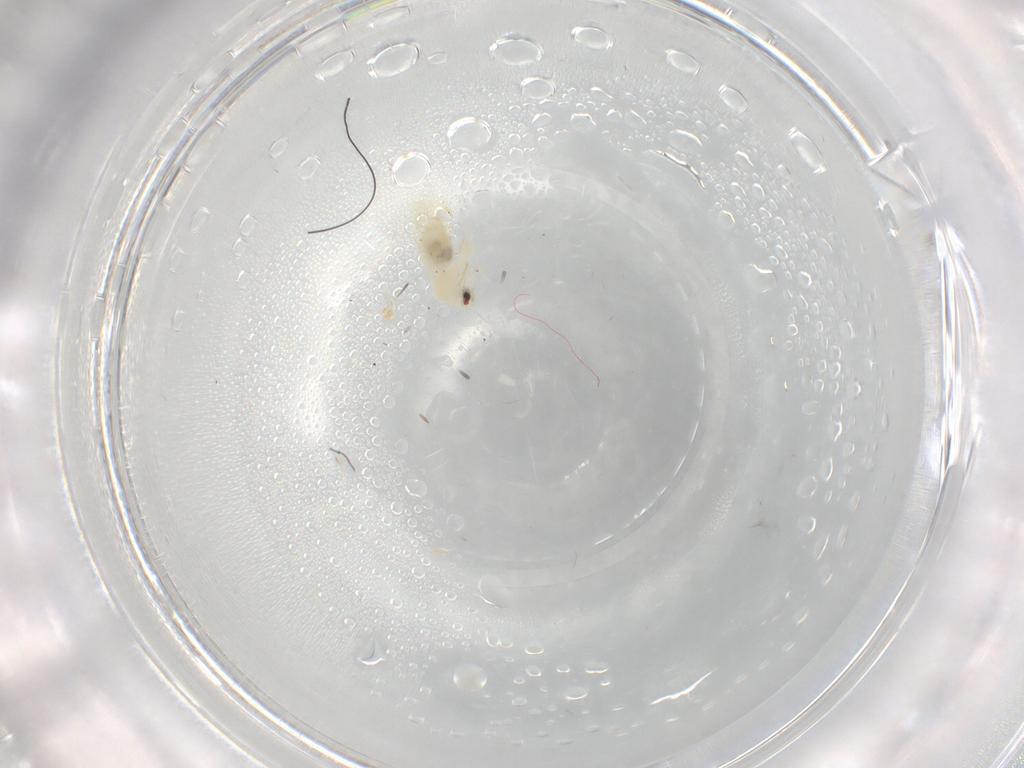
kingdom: Animalia
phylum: Arthropoda
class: Insecta
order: Hemiptera
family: Aleyrodidae
